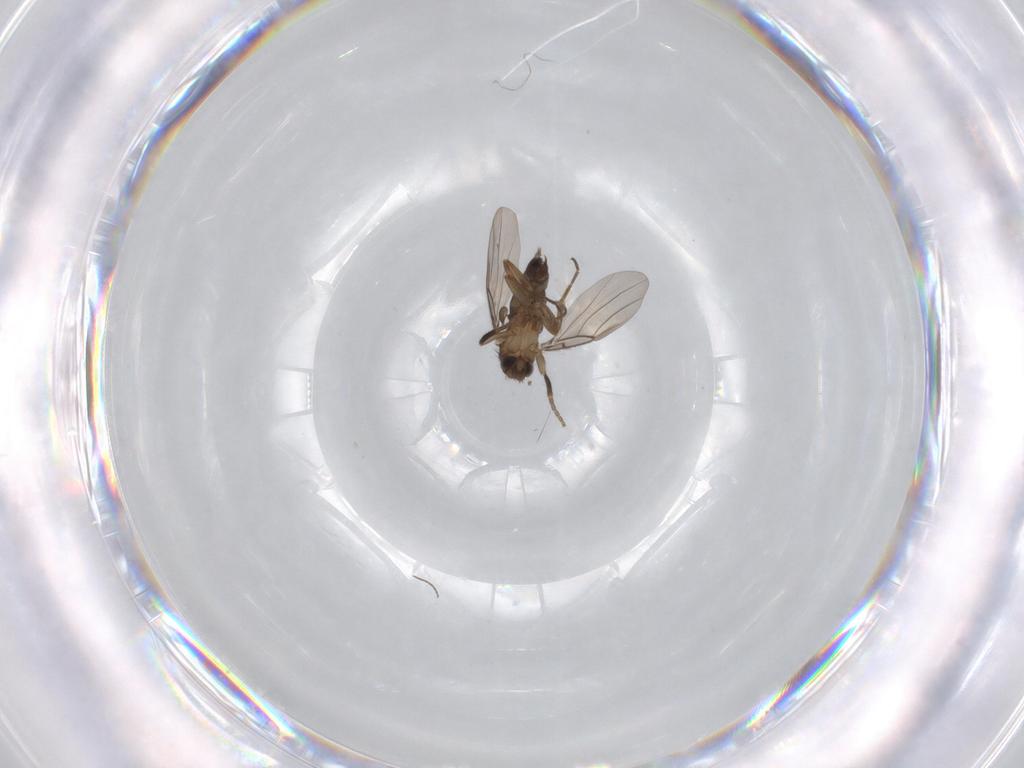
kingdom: Animalia
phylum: Arthropoda
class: Insecta
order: Diptera
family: Phoridae
